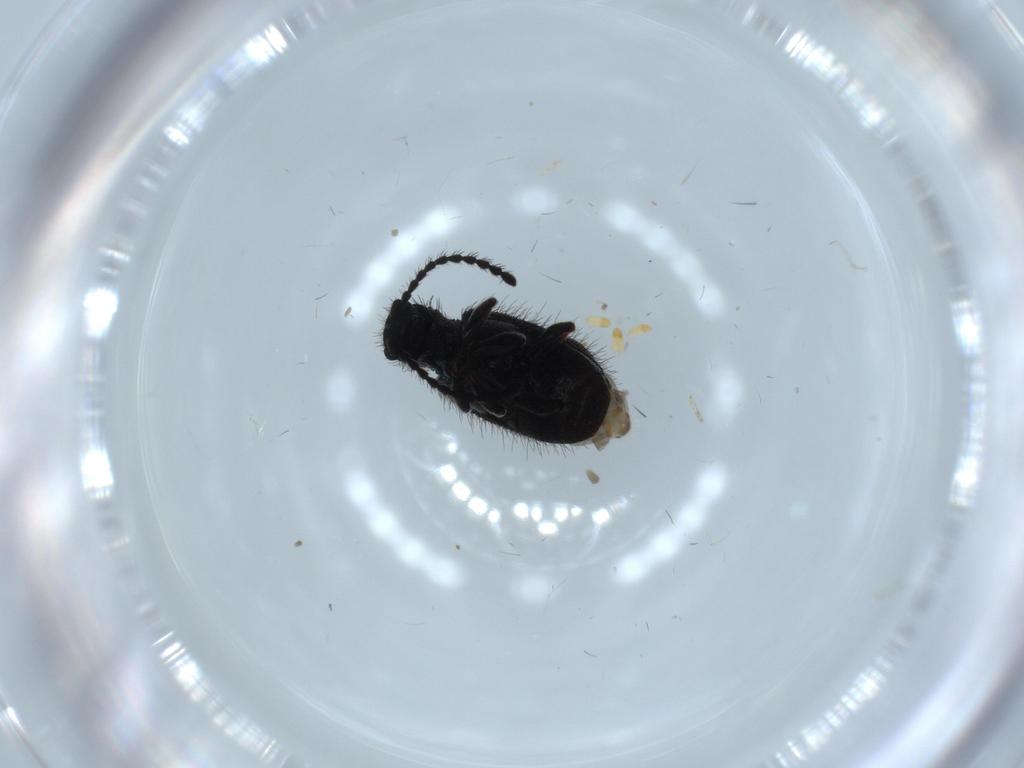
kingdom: Animalia
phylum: Arthropoda
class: Insecta
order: Coleoptera
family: Ptinidae
